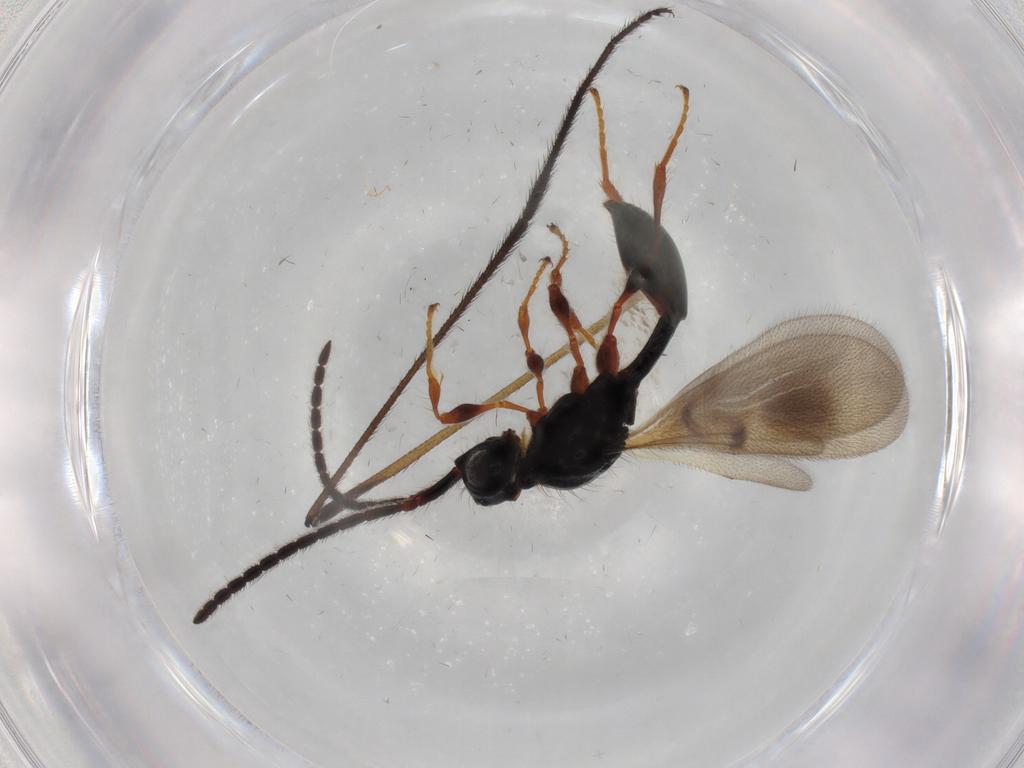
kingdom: Animalia
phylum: Arthropoda
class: Insecta
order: Hymenoptera
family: Diapriidae
